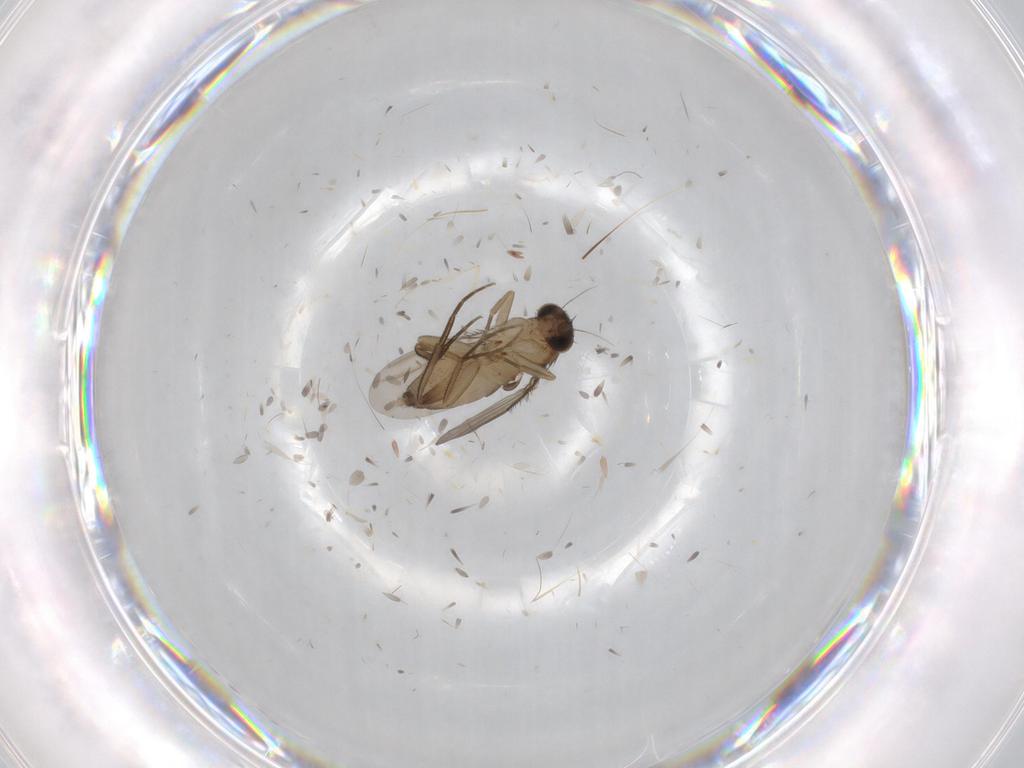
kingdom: Animalia
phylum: Arthropoda
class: Insecta
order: Diptera
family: Phoridae
